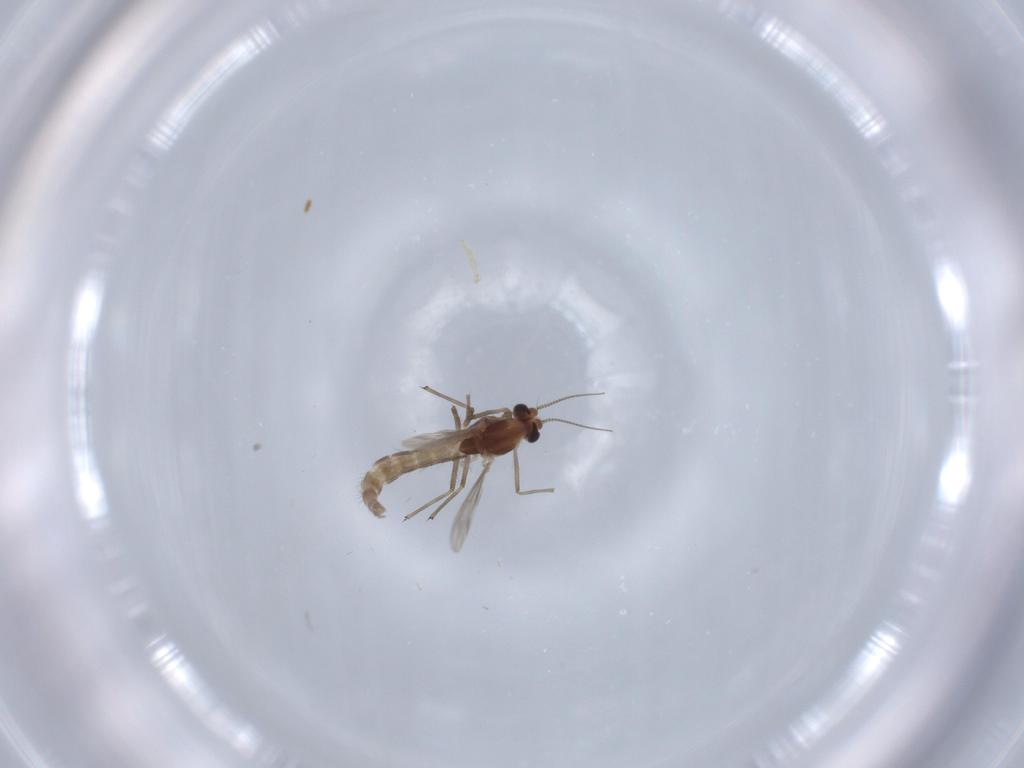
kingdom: Animalia
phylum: Arthropoda
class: Insecta
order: Diptera
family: Chironomidae
